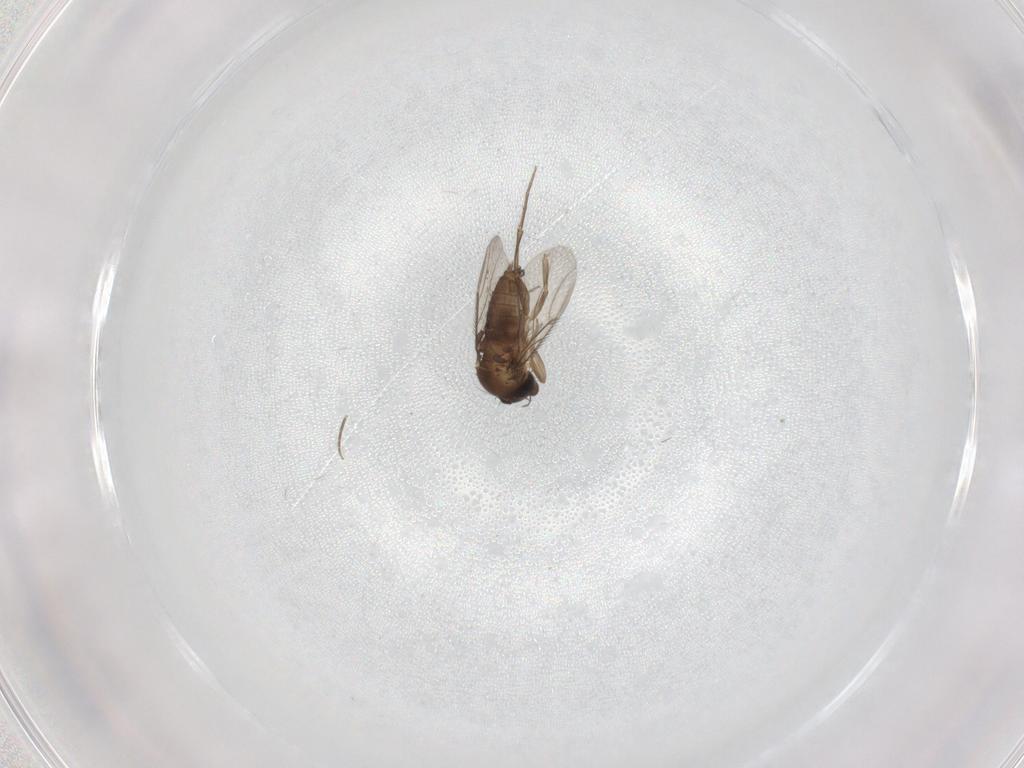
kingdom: Animalia
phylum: Arthropoda
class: Insecta
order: Diptera
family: Phoridae
